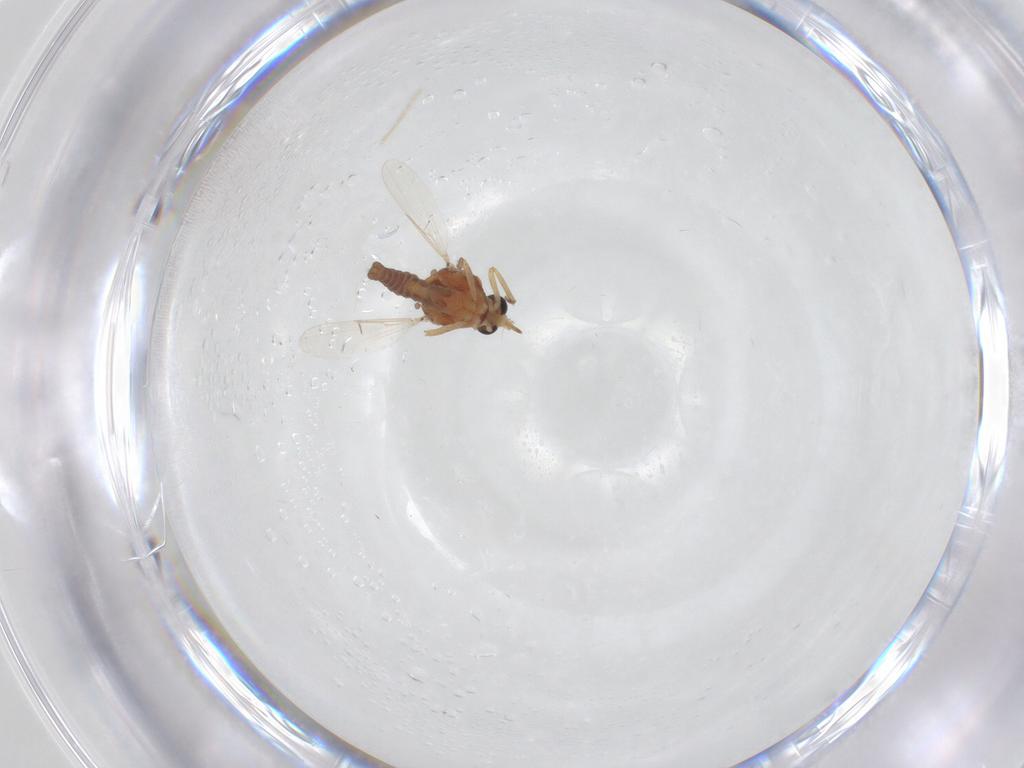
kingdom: Animalia
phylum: Arthropoda
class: Insecta
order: Diptera
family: Ceratopogonidae
